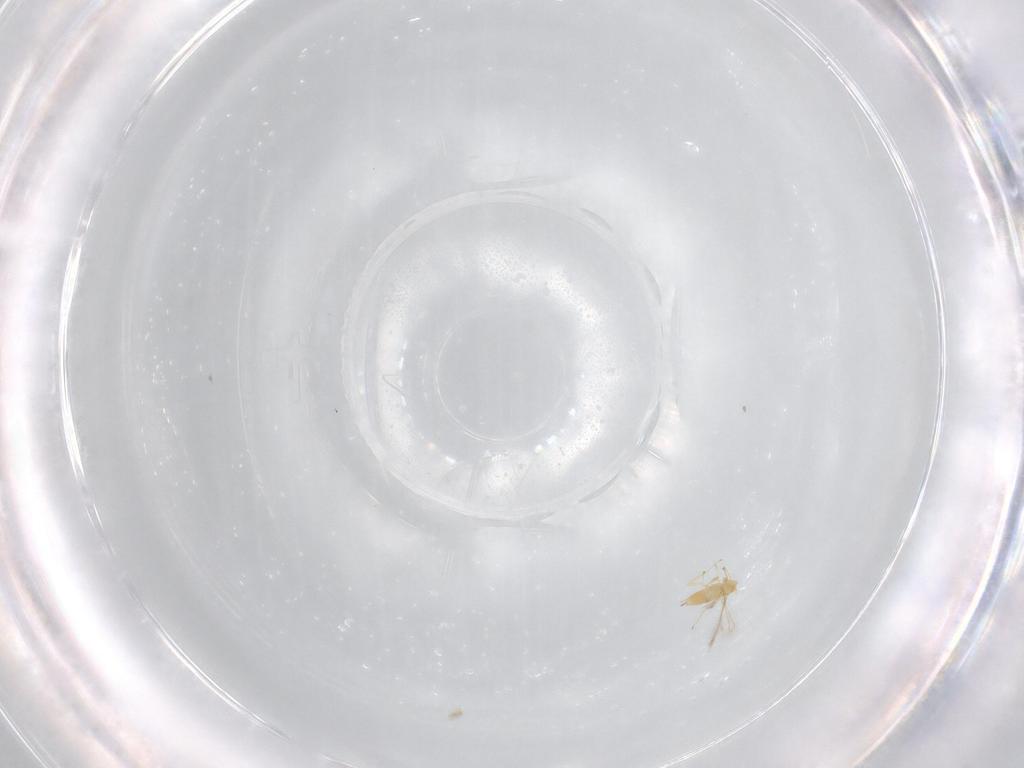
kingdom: Animalia
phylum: Arthropoda
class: Insecta
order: Hymenoptera
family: Mymaridae
